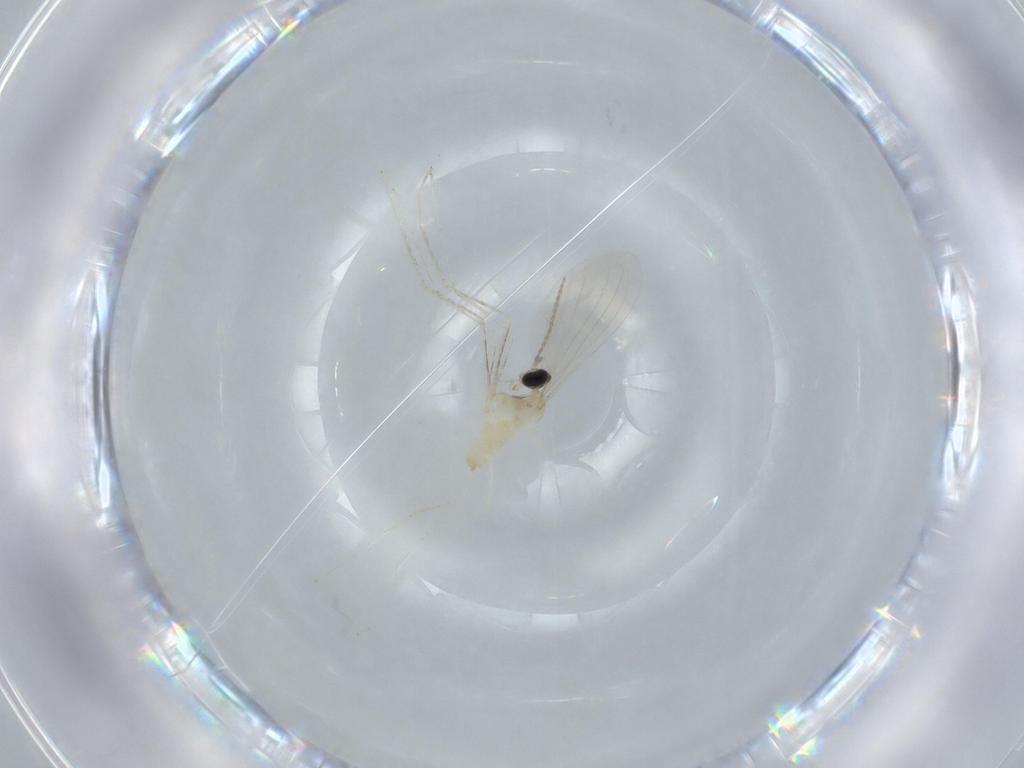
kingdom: Animalia
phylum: Arthropoda
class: Insecta
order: Diptera
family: Cecidomyiidae
